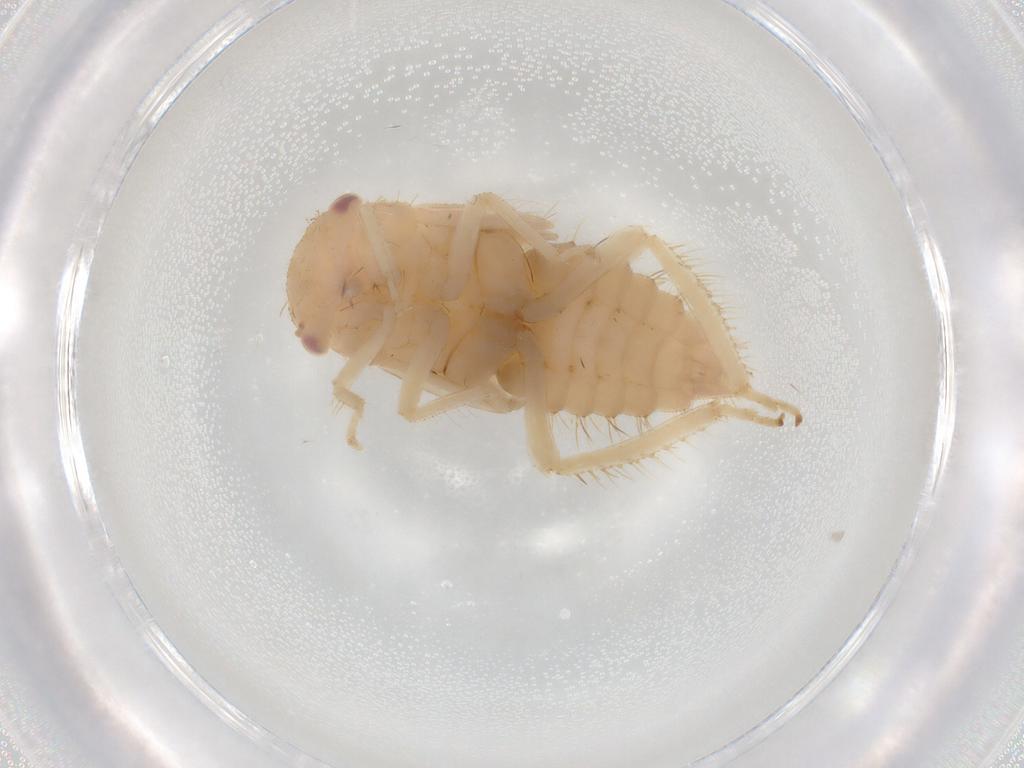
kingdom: Animalia
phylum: Arthropoda
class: Insecta
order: Hemiptera
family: Cicadellidae
